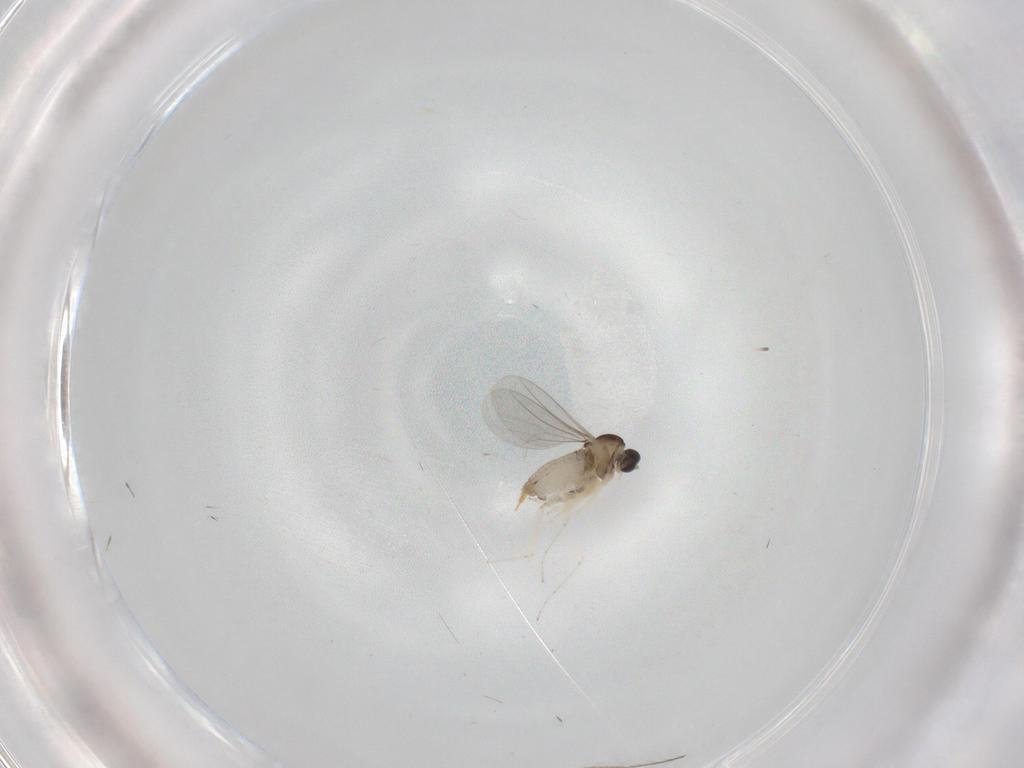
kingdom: Animalia
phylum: Arthropoda
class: Insecta
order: Diptera
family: Cecidomyiidae
